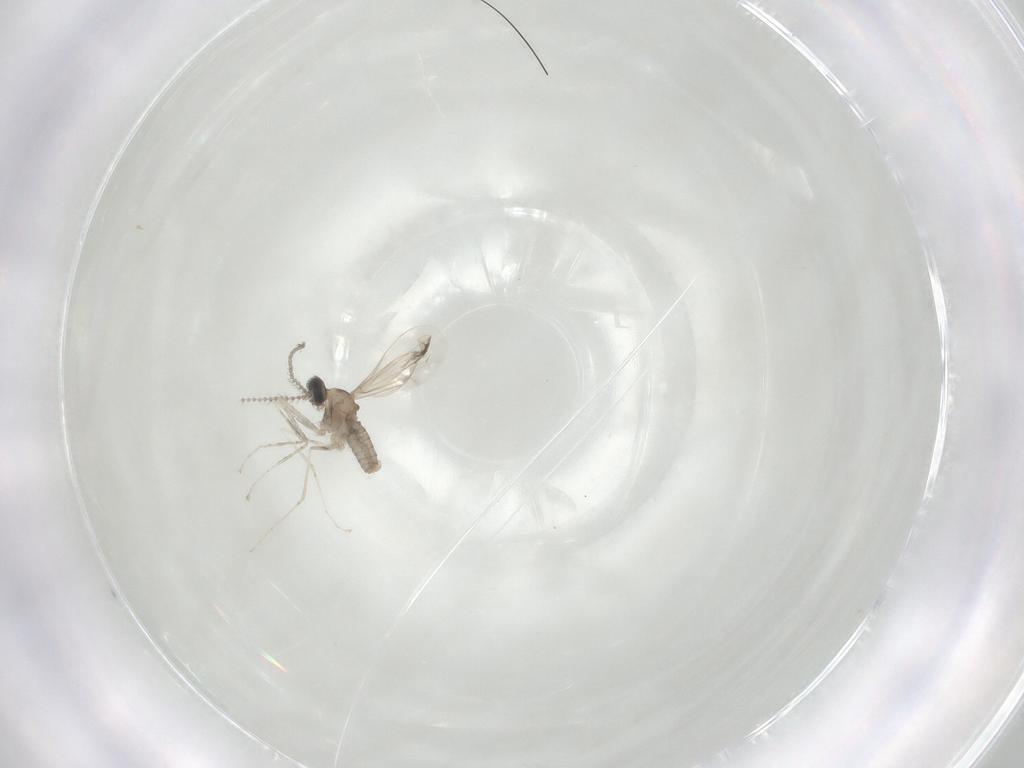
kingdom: Animalia
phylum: Arthropoda
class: Insecta
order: Diptera
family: Cecidomyiidae
